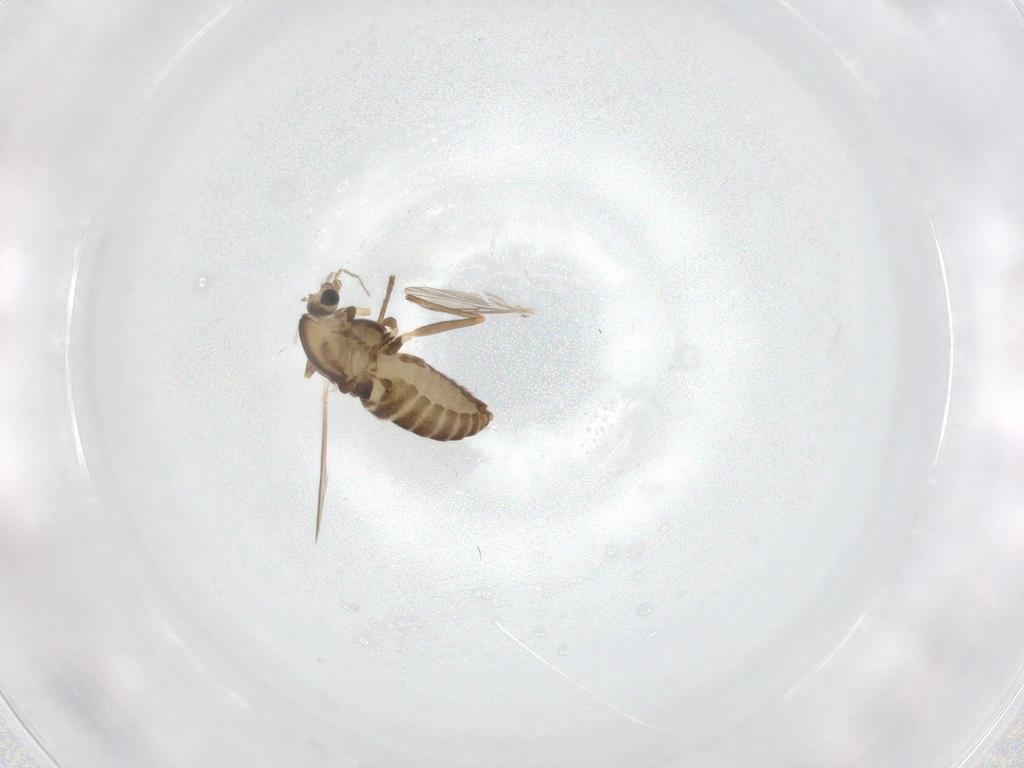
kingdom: Animalia
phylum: Arthropoda
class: Insecta
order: Diptera
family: Chironomidae
